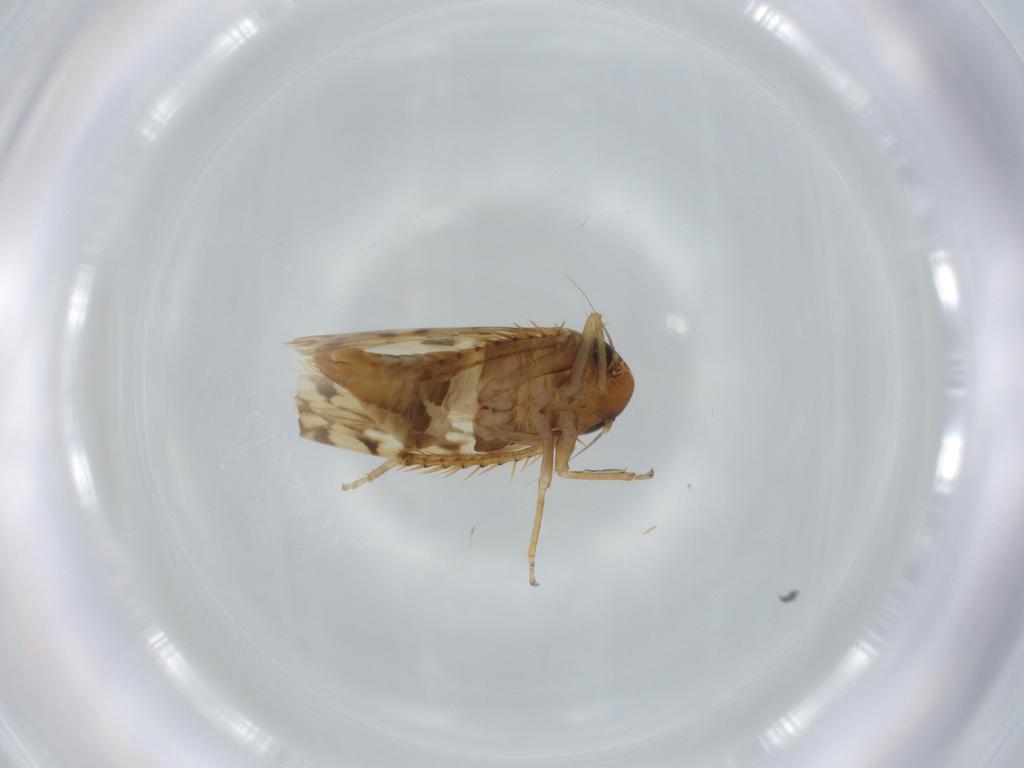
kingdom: Animalia
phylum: Arthropoda
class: Insecta
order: Hemiptera
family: Cicadellidae
